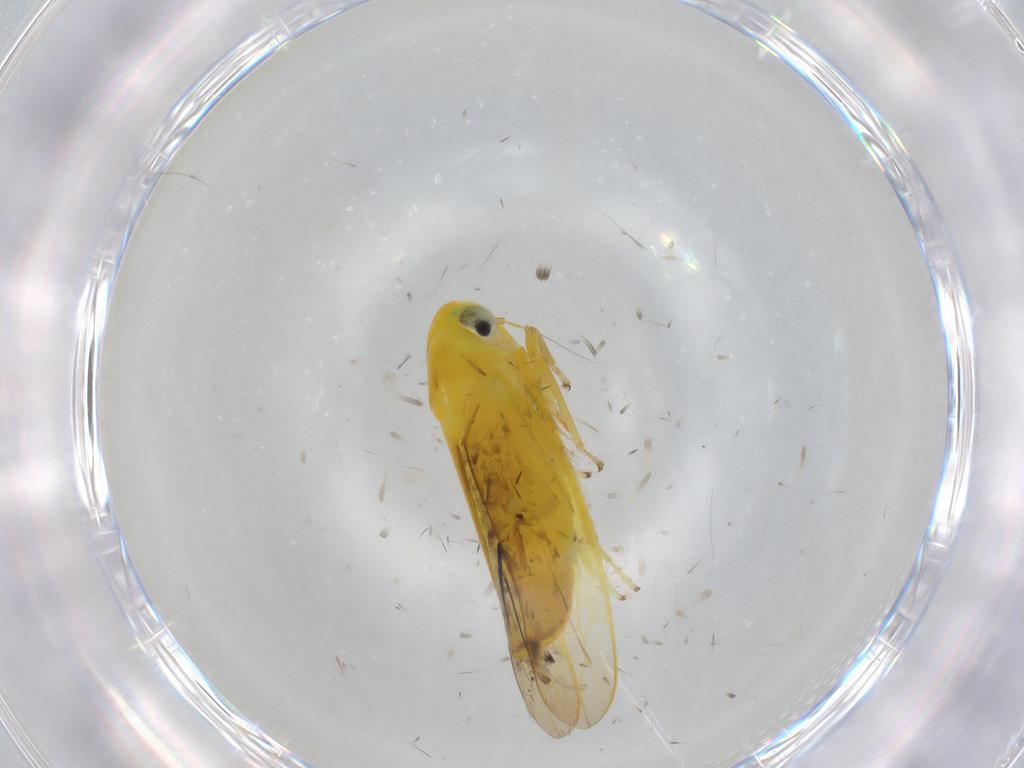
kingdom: Animalia
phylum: Arthropoda
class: Insecta
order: Hemiptera
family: Cicadellidae
